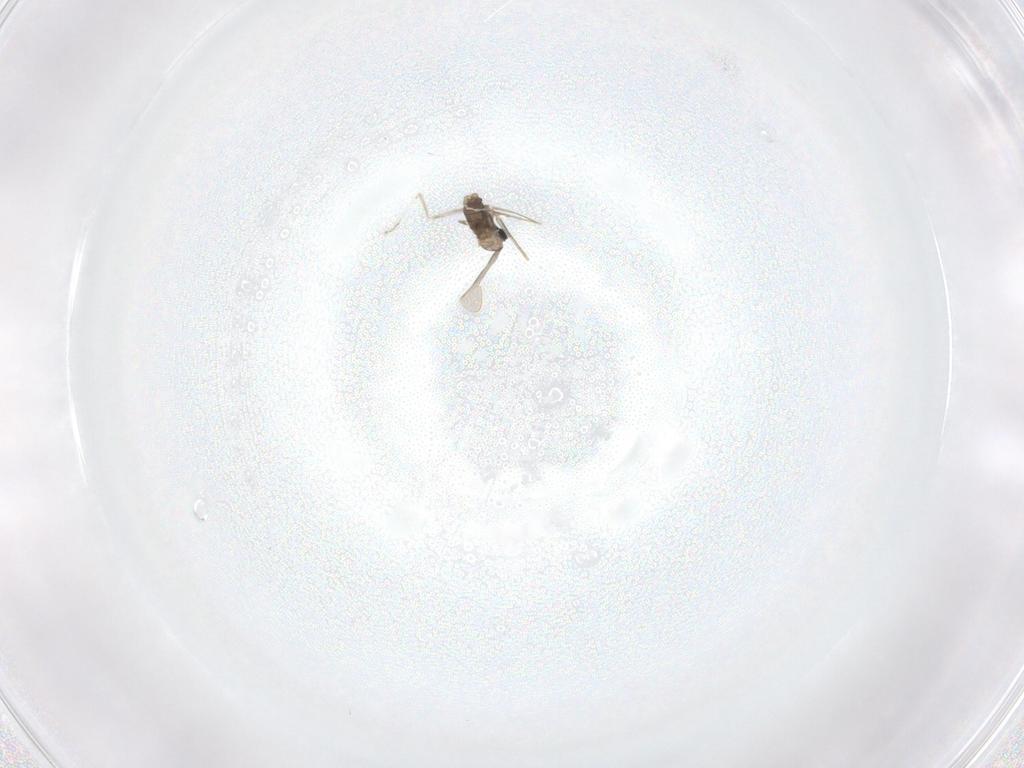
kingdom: Animalia
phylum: Arthropoda
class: Insecta
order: Diptera
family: Cecidomyiidae
